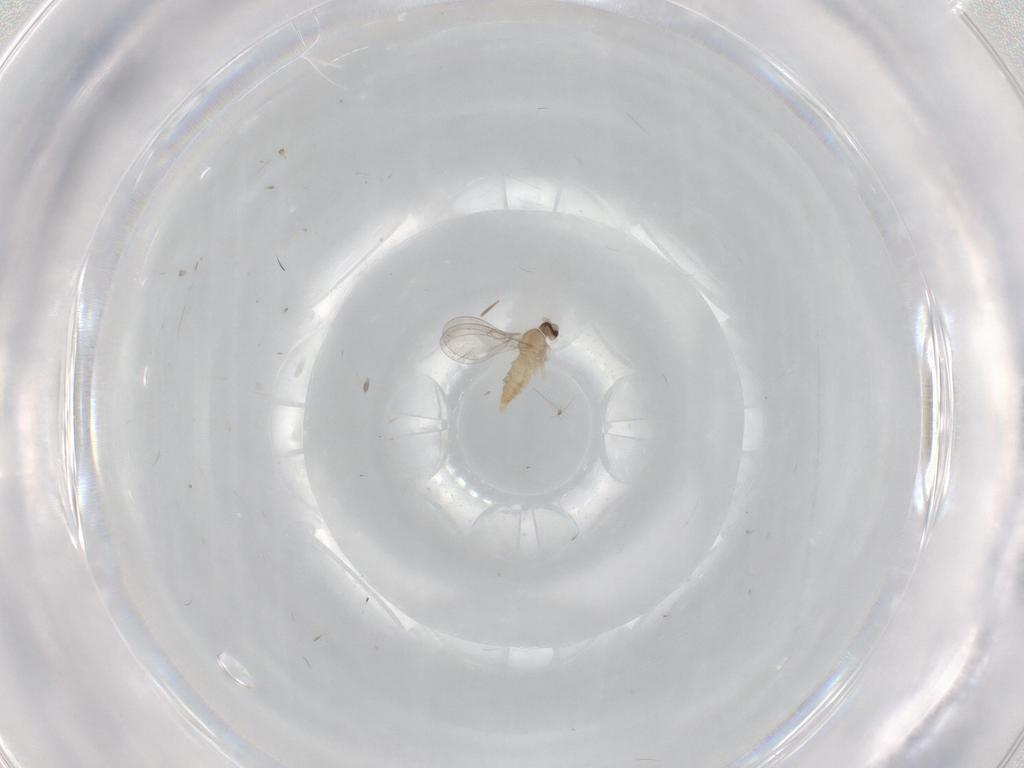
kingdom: Animalia
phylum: Arthropoda
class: Insecta
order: Diptera
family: Cecidomyiidae
